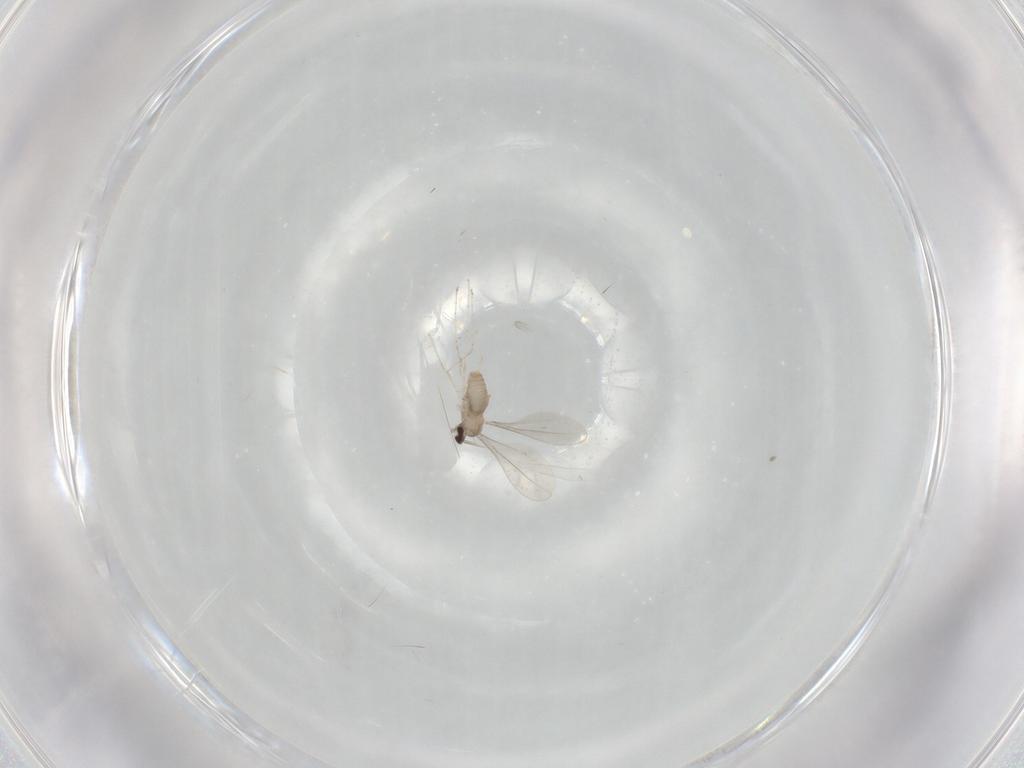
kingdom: Animalia
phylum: Arthropoda
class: Insecta
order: Diptera
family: Cecidomyiidae
